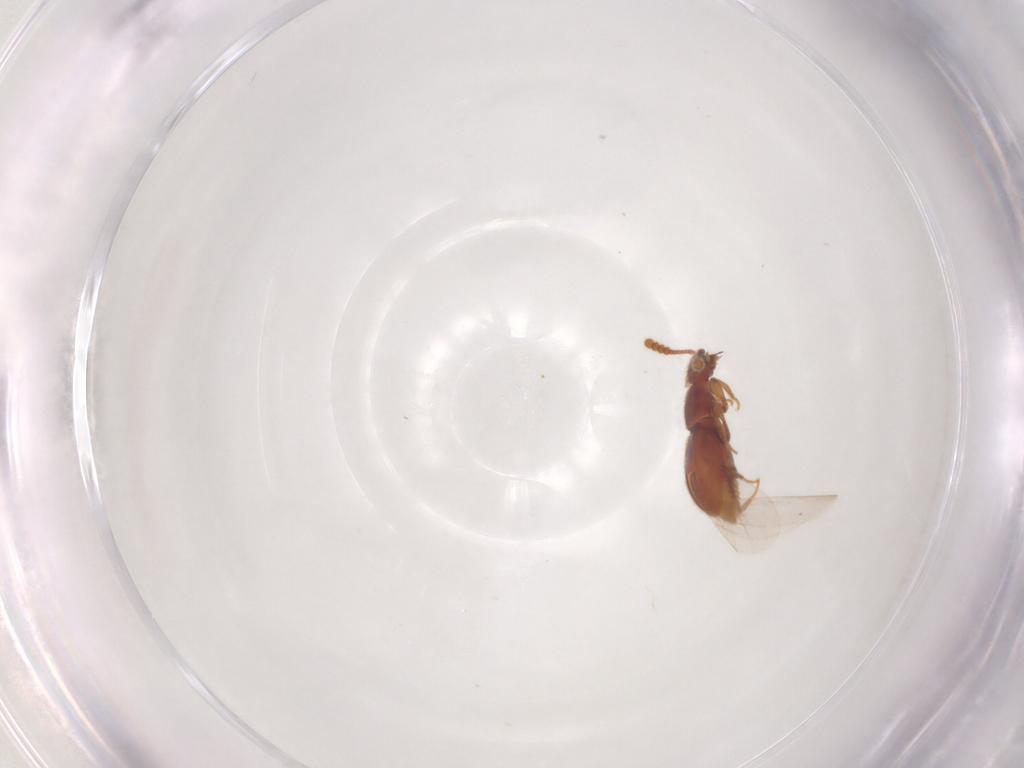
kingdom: Animalia
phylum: Arthropoda
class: Insecta
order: Coleoptera
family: Staphylinidae
